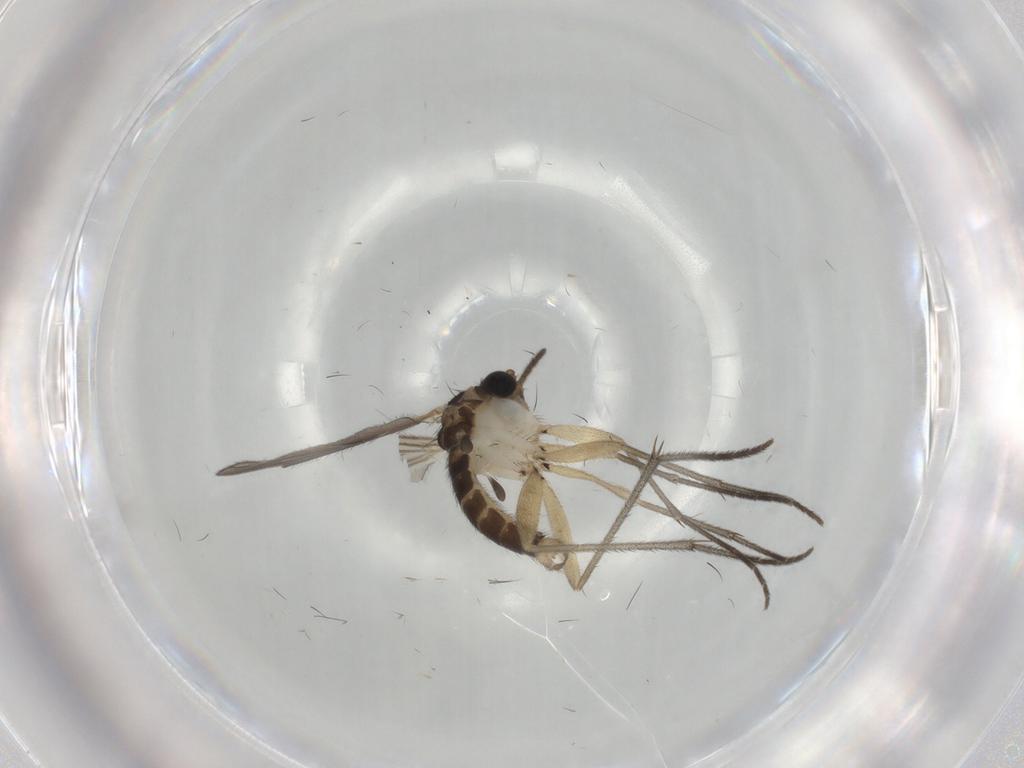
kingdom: Animalia
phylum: Arthropoda
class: Insecta
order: Diptera
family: Sciaridae
